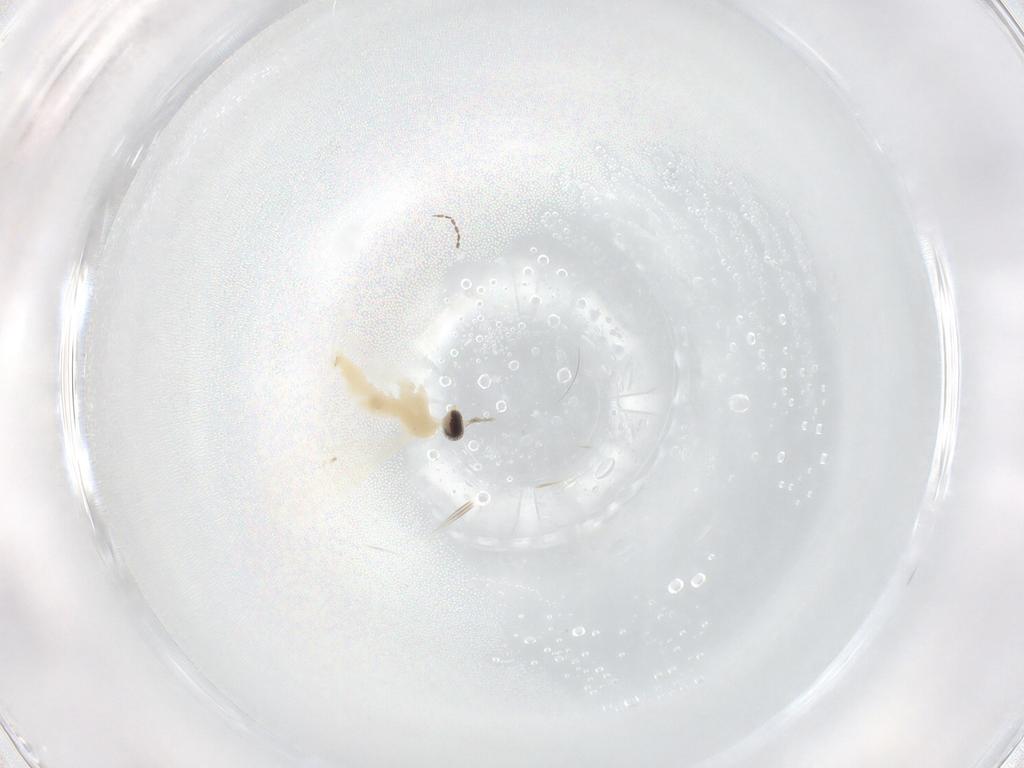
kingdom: Animalia
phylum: Arthropoda
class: Insecta
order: Diptera
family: Cecidomyiidae
